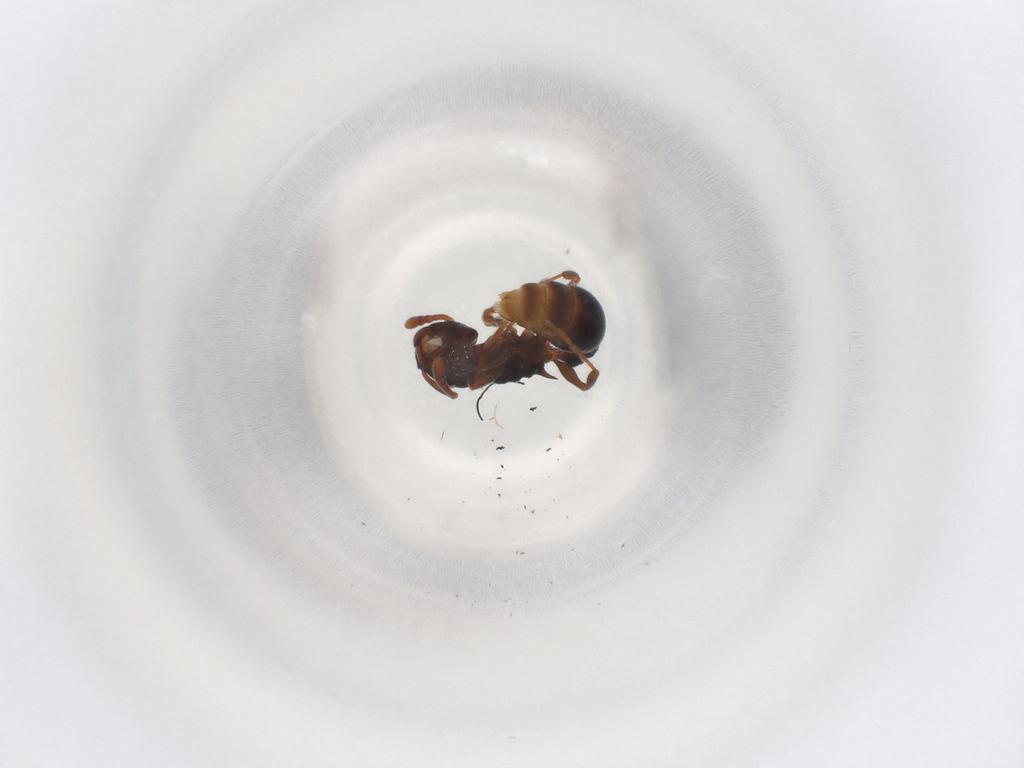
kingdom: Animalia
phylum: Arthropoda
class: Insecta
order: Hymenoptera
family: Formicidae
